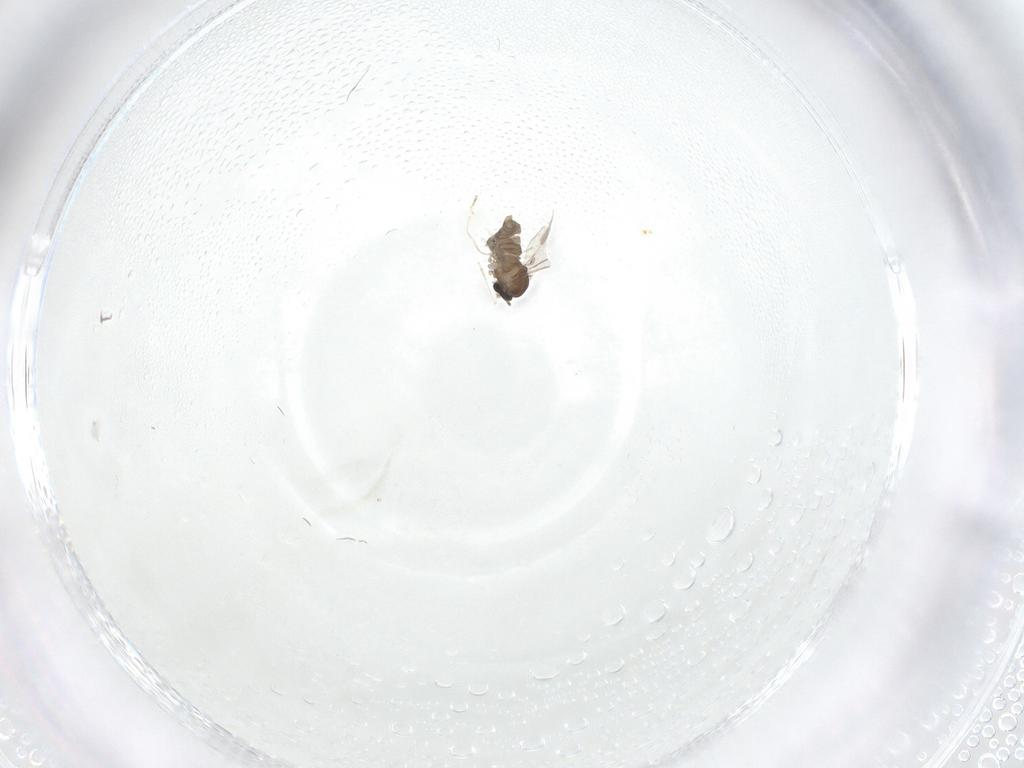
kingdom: Animalia
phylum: Arthropoda
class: Insecta
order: Diptera
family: Cecidomyiidae
